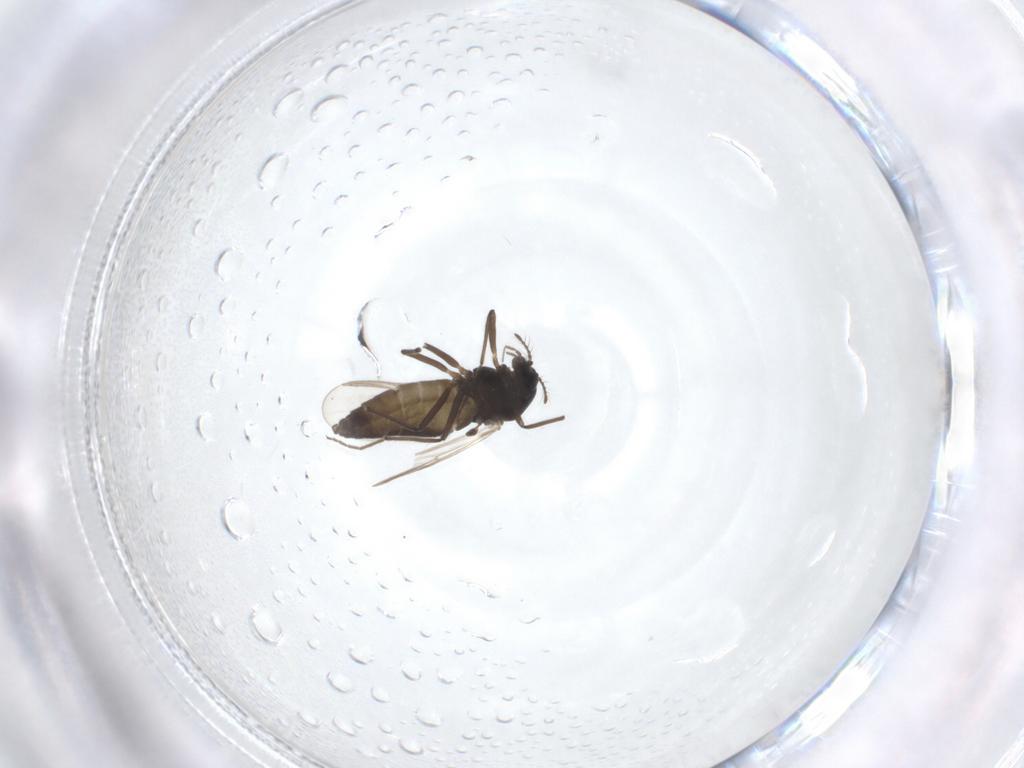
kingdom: Animalia
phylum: Arthropoda
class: Insecta
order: Diptera
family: Chironomidae
